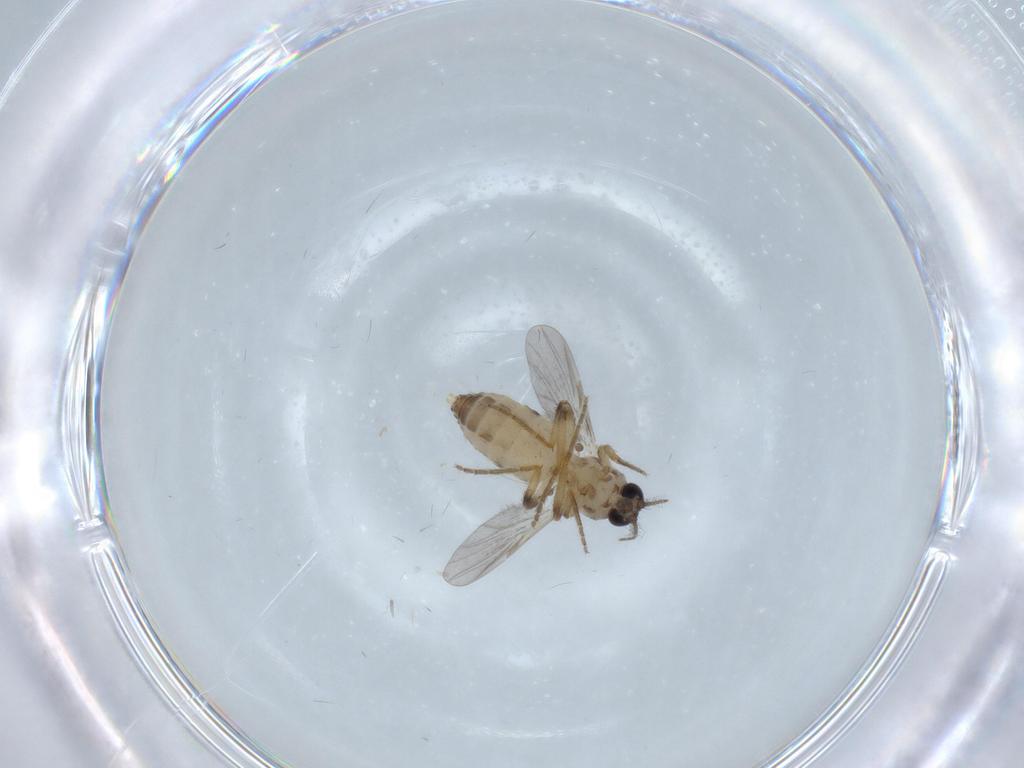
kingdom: Animalia
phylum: Arthropoda
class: Insecta
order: Diptera
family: Ceratopogonidae
